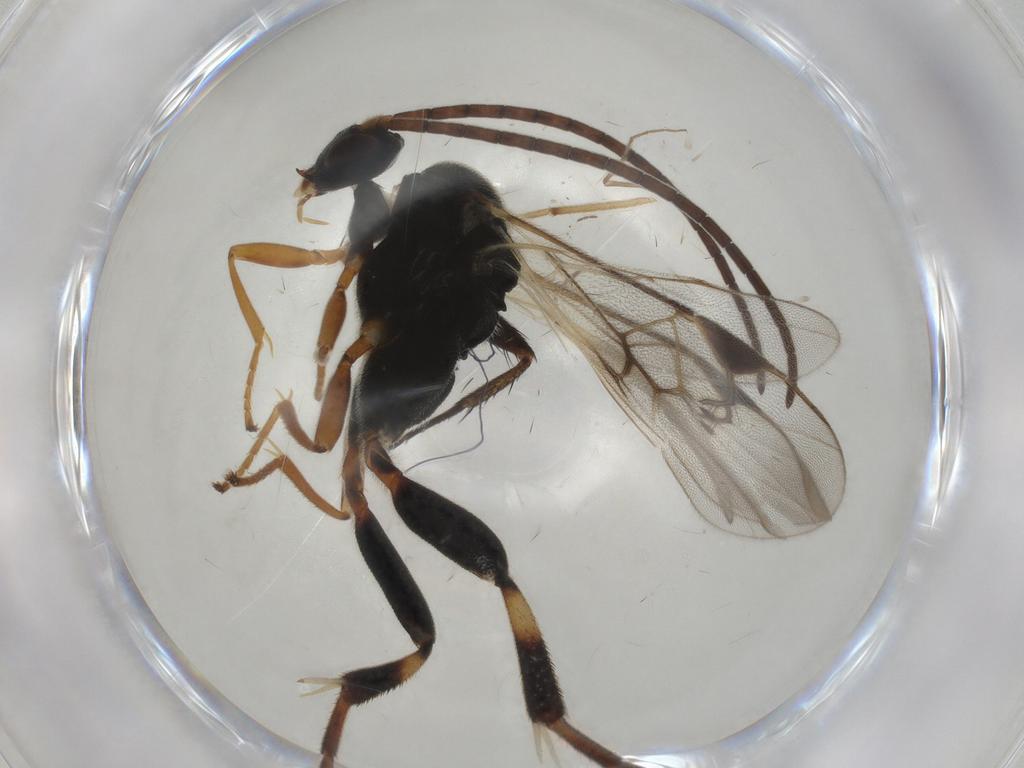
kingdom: Animalia
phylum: Arthropoda
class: Insecta
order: Hymenoptera
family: Braconidae
